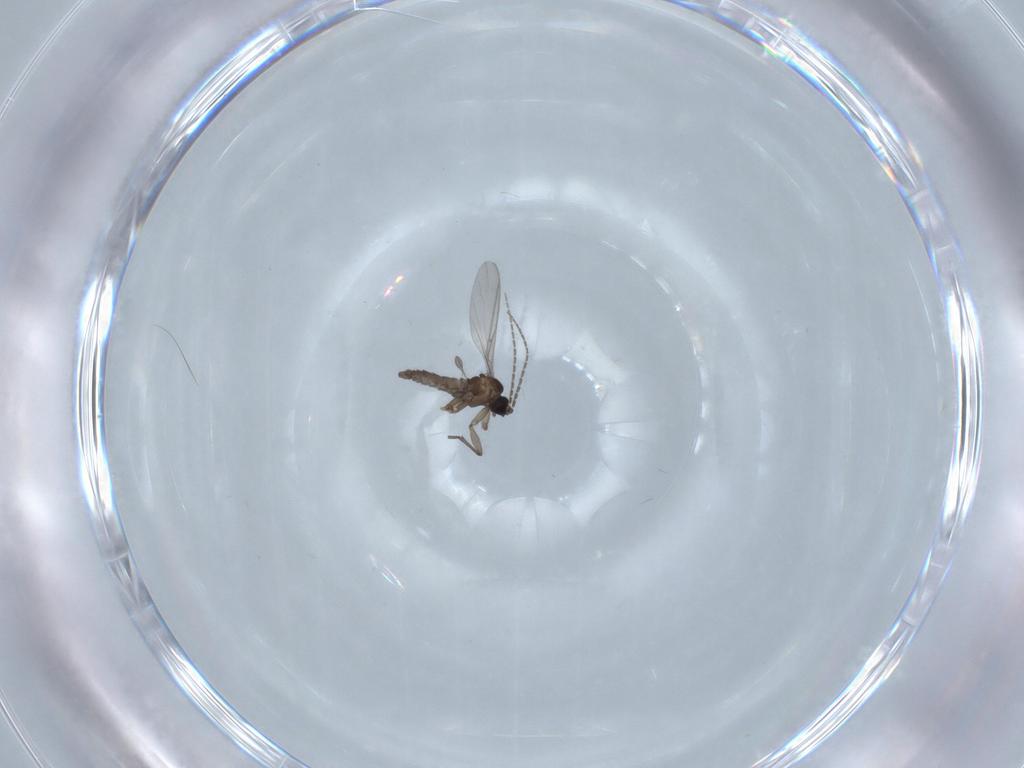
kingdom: Animalia
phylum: Arthropoda
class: Insecta
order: Diptera
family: Sciaridae
